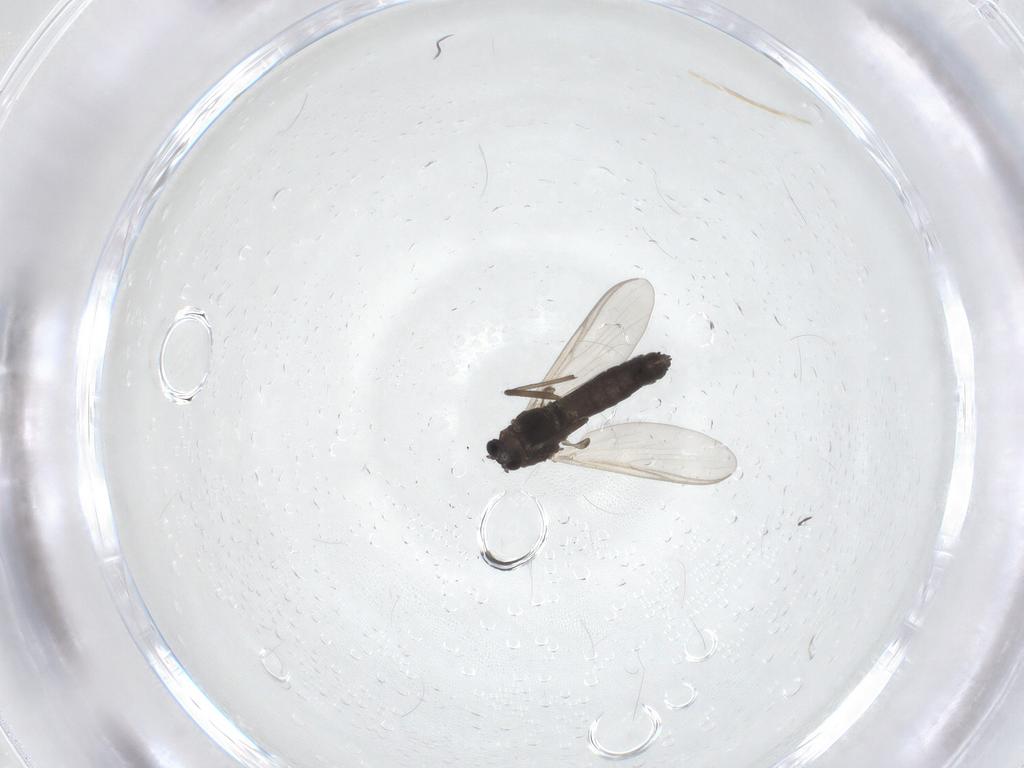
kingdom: Animalia
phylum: Arthropoda
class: Insecta
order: Diptera
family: Chironomidae
